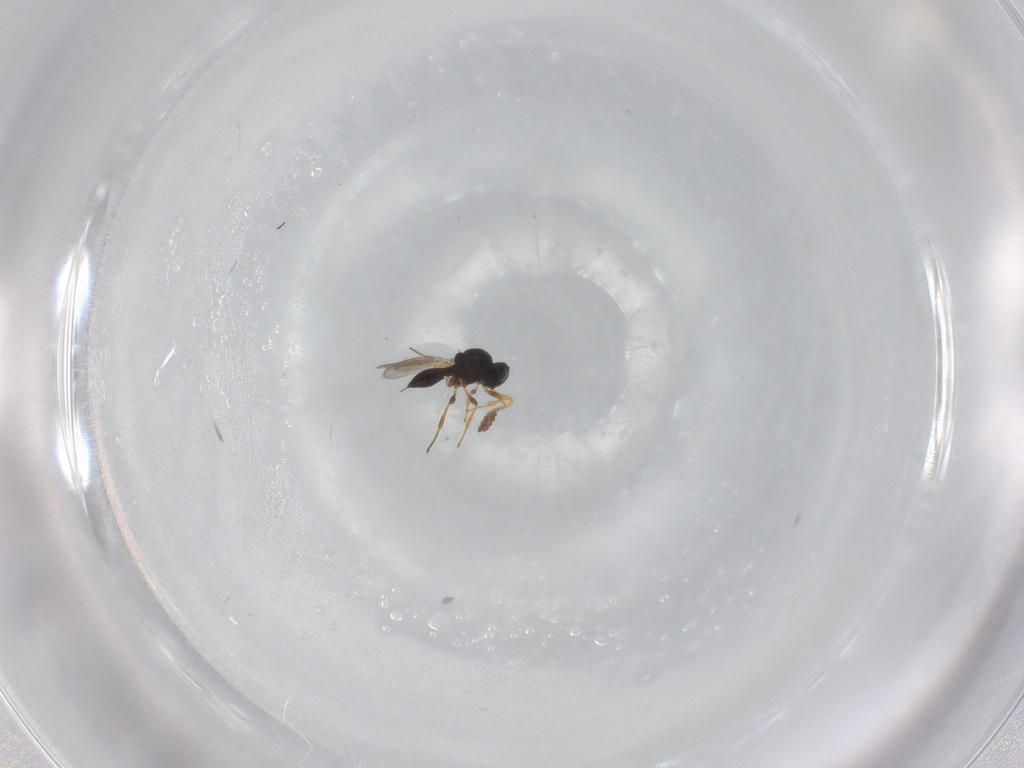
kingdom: Animalia
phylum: Arthropoda
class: Insecta
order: Hymenoptera
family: Platygastridae
